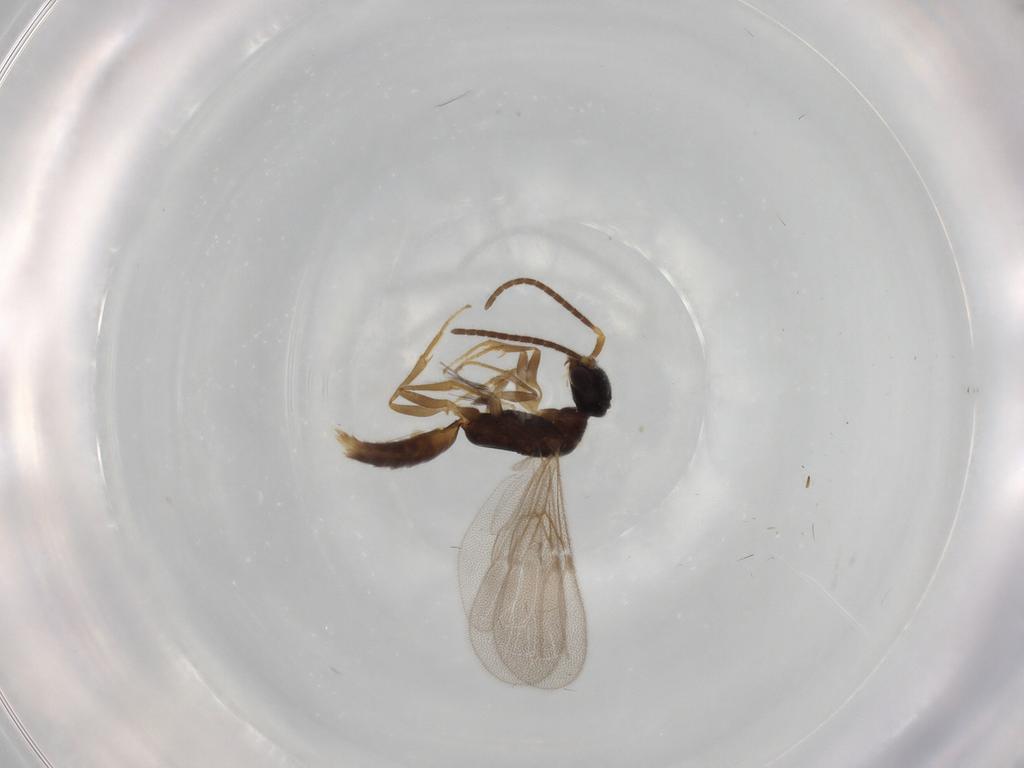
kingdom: Animalia
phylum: Arthropoda
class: Insecta
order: Hymenoptera
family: Bethylidae
